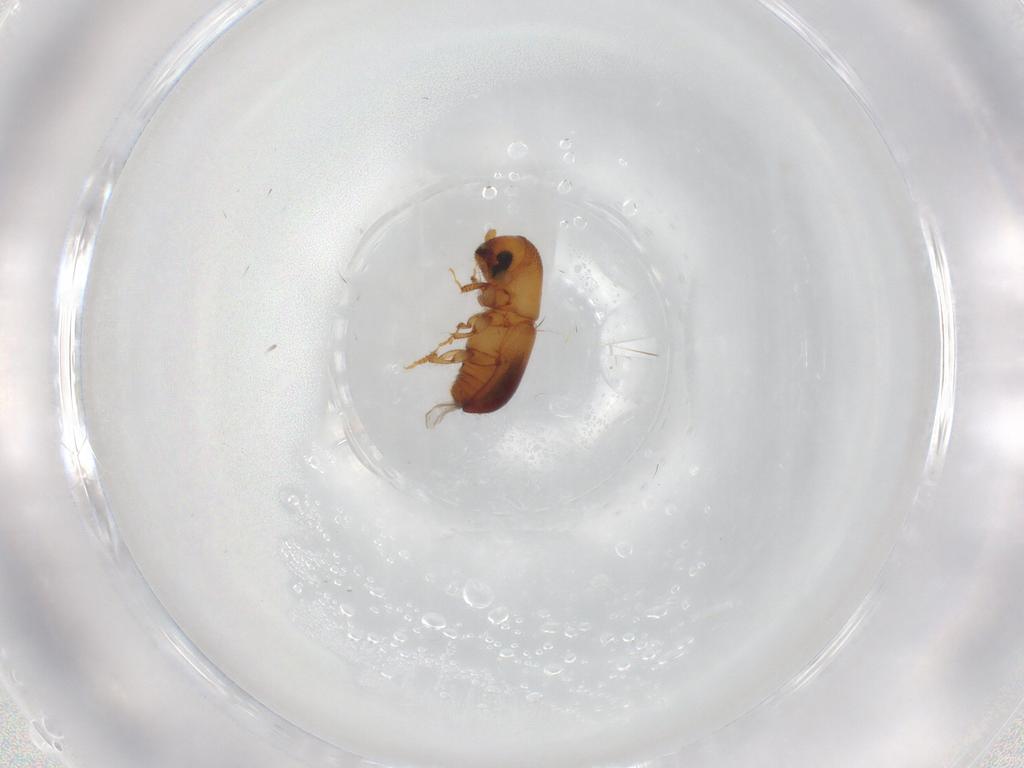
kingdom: Animalia
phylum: Arthropoda
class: Insecta
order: Coleoptera
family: Curculionidae
